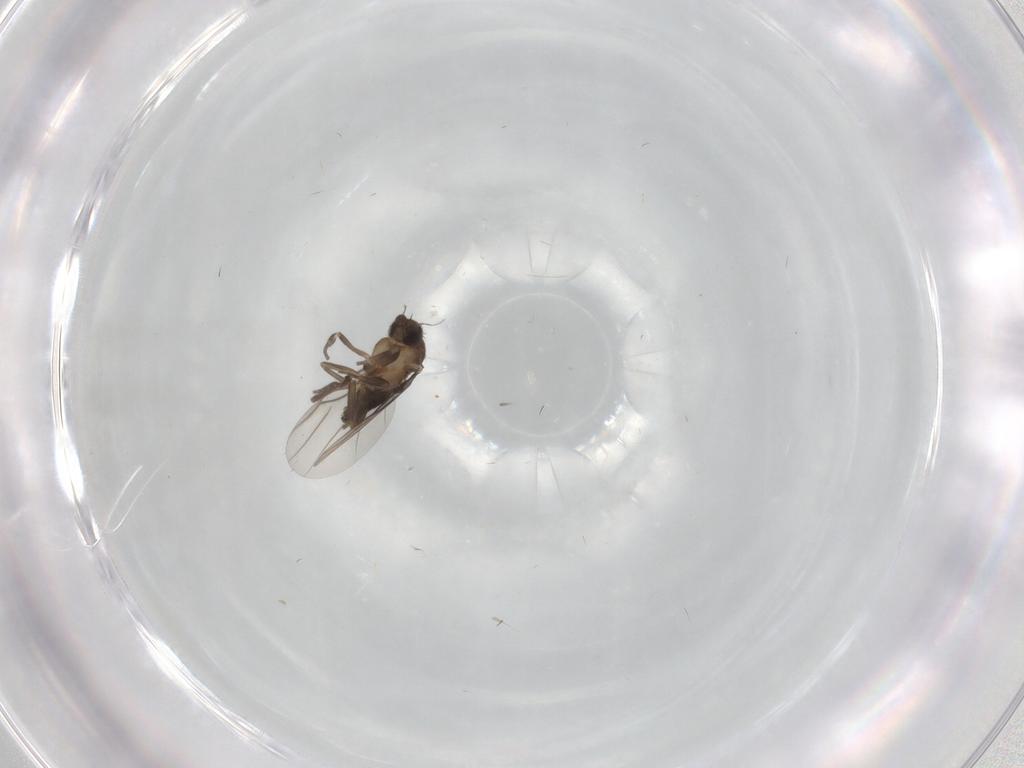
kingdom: Animalia
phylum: Arthropoda
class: Insecta
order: Diptera
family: Phoridae
